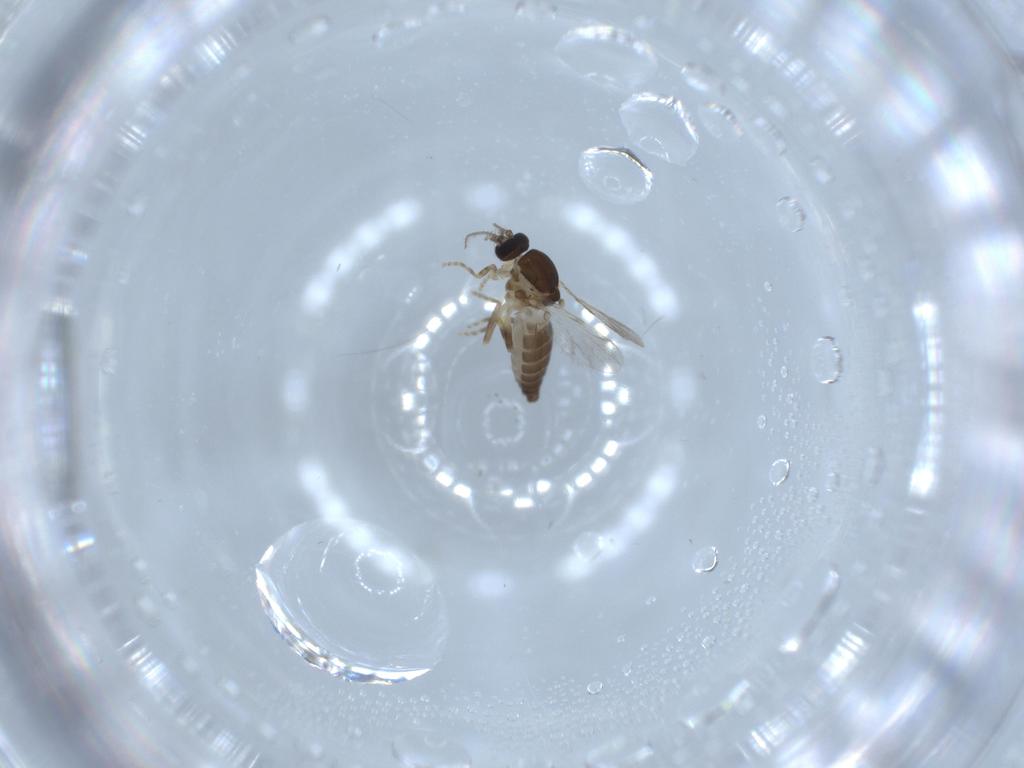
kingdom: Animalia
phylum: Arthropoda
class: Insecta
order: Diptera
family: Ceratopogonidae
